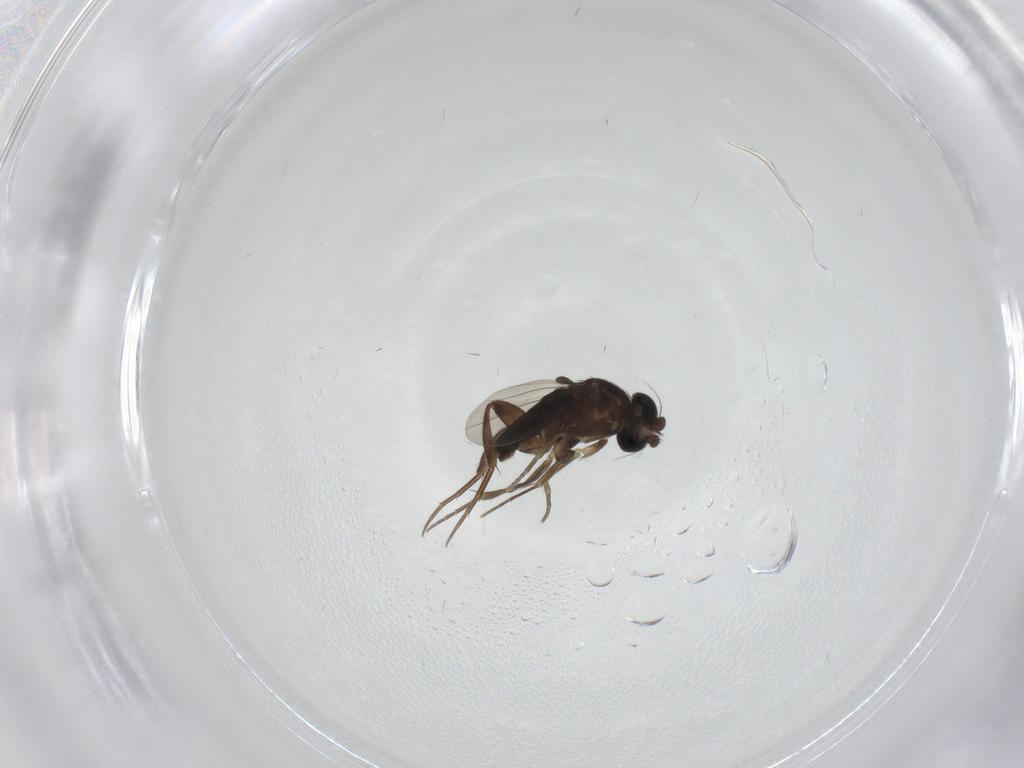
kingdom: Animalia
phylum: Arthropoda
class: Insecta
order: Diptera
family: Phoridae
